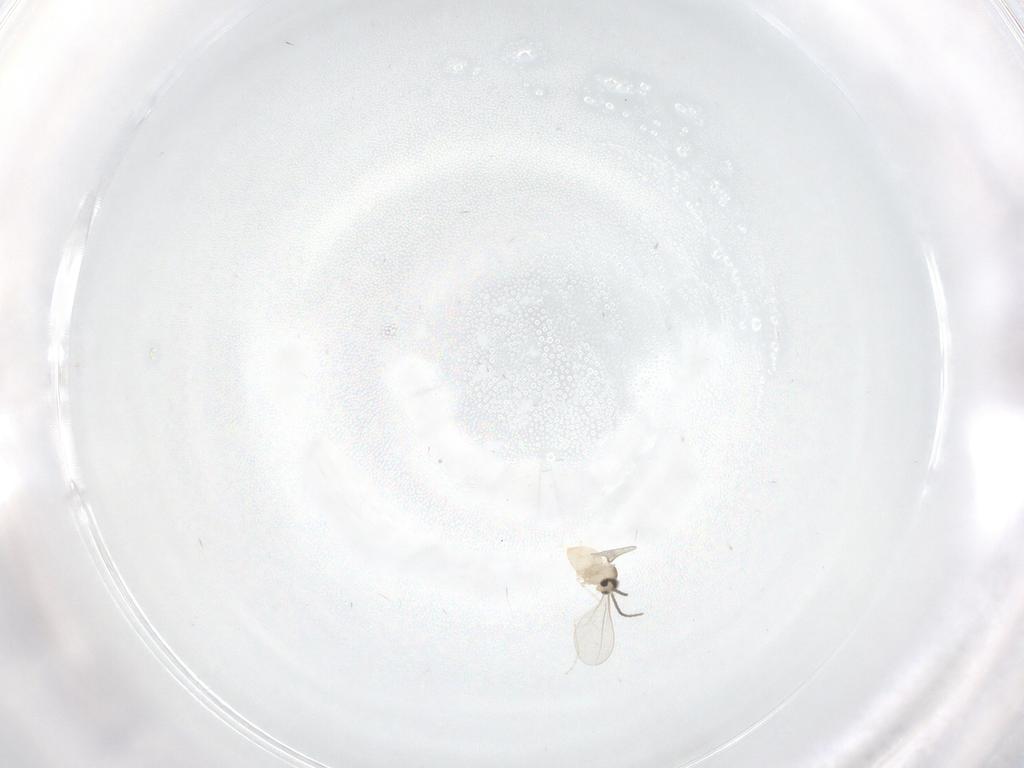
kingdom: Animalia
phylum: Arthropoda
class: Insecta
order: Diptera
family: Cecidomyiidae
